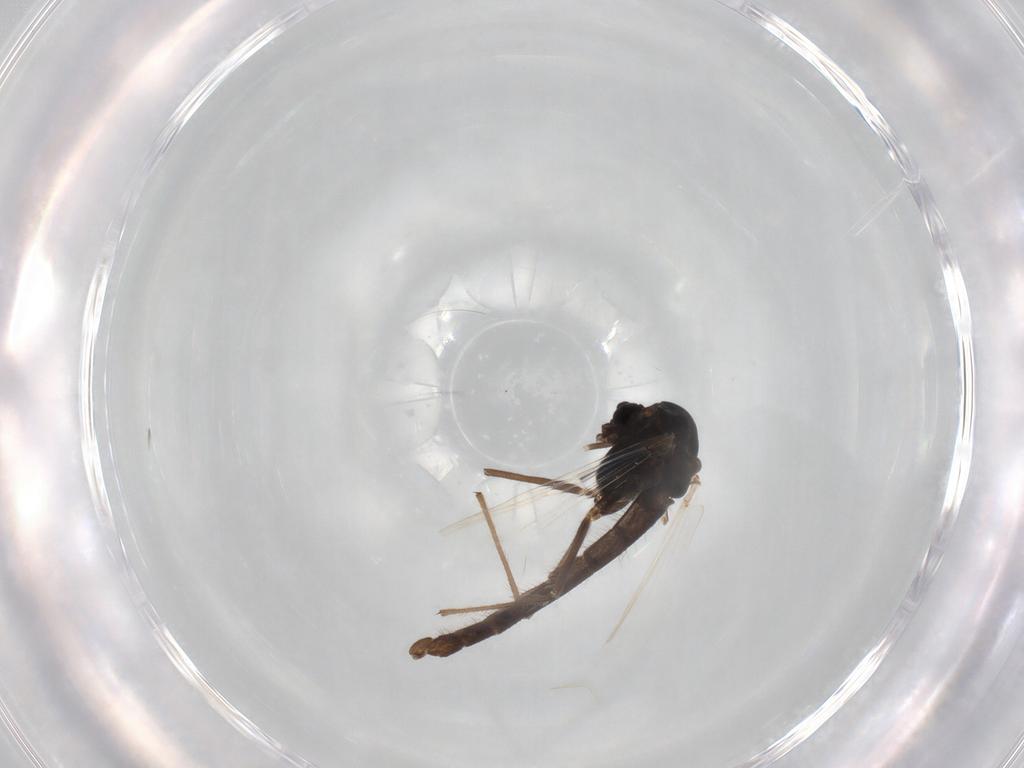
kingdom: Animalia
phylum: Arthropoda
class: Insecta
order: Diptera
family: Chironomidae
